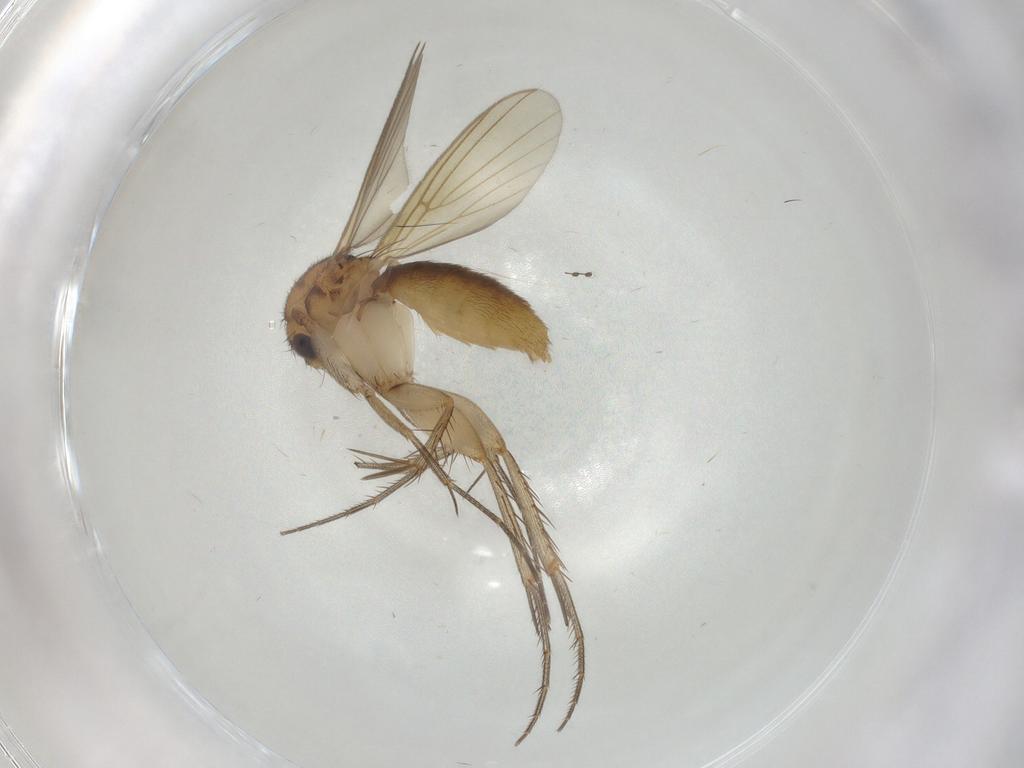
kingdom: Animalia
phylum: Arthropoda
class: Insecta
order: Diptera
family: Mycetophilidae
